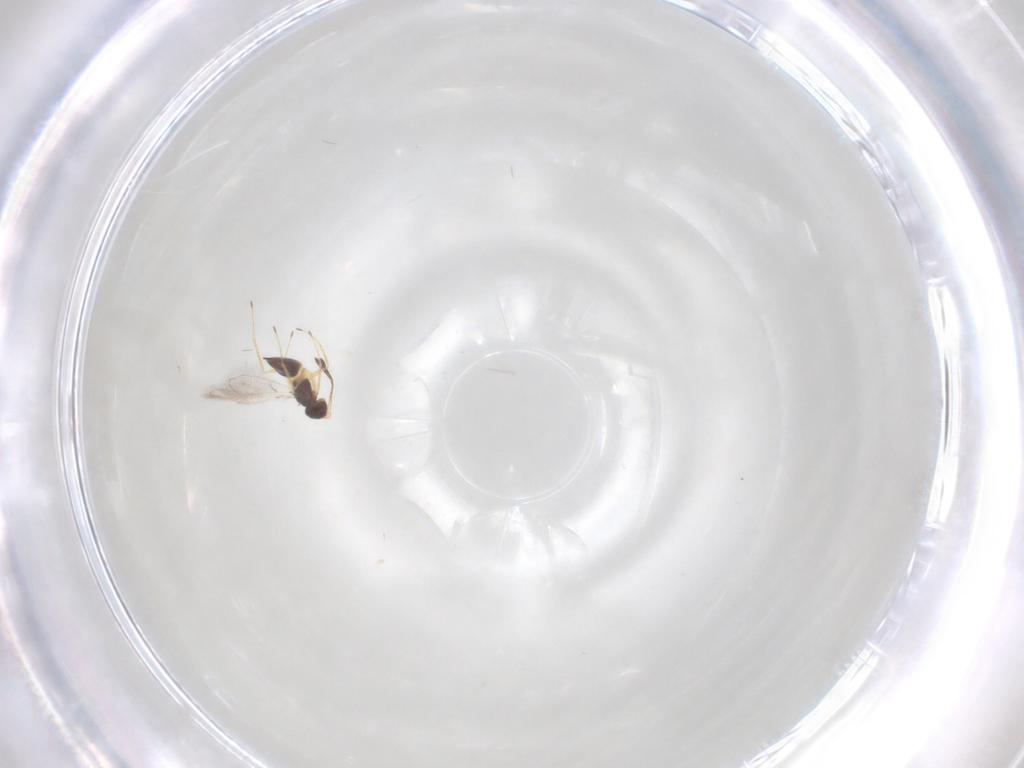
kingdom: Animalia
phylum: Arthropoda
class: Insecta
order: Hymenoptera
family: Mymaridae
